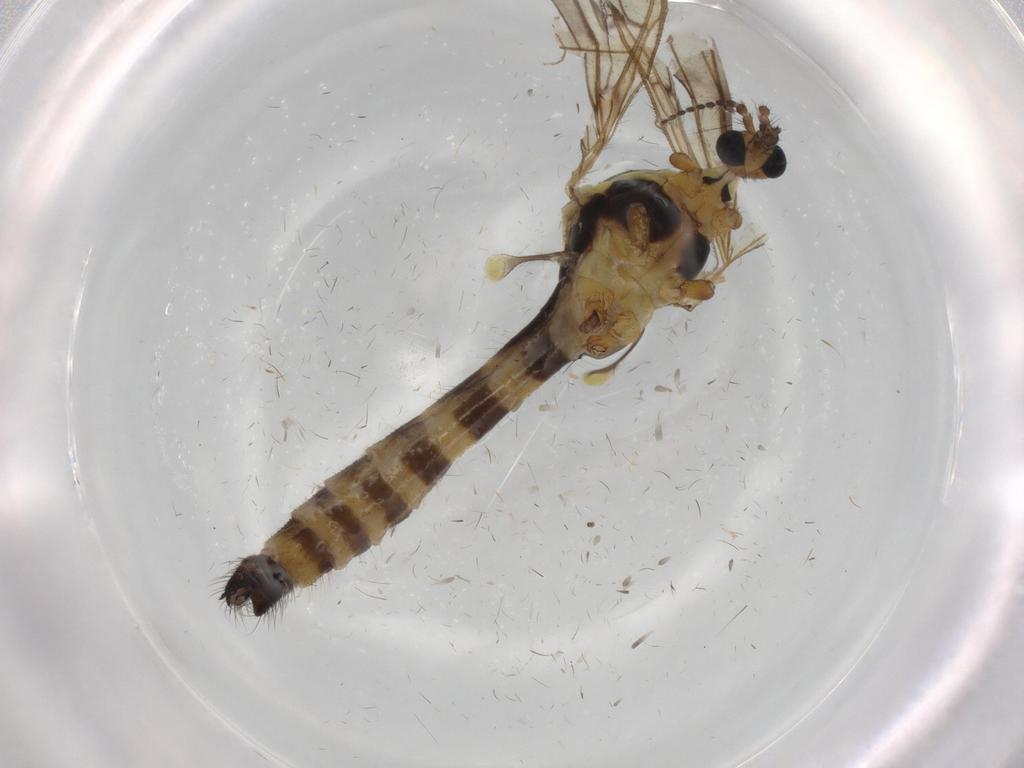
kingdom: Animalia
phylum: Arthropoda
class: Insecta
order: Diptera
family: Limoniidae
